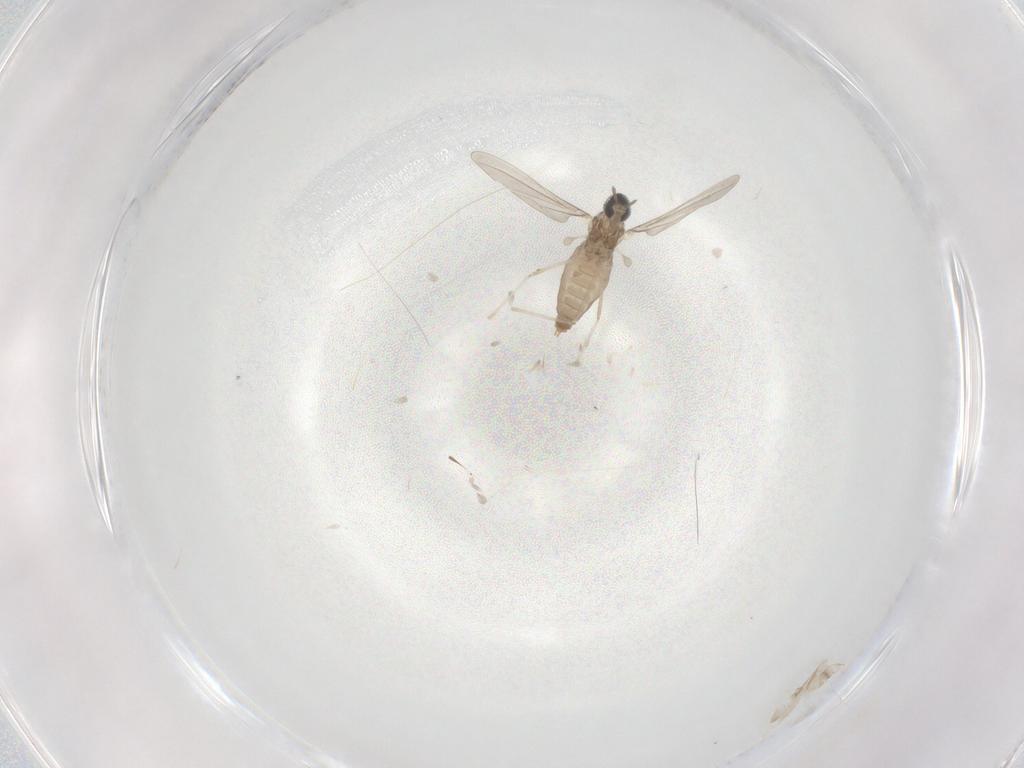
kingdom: Animalia
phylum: Arthropoda
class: Insecta
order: Diptera
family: Cecidomyiidae
